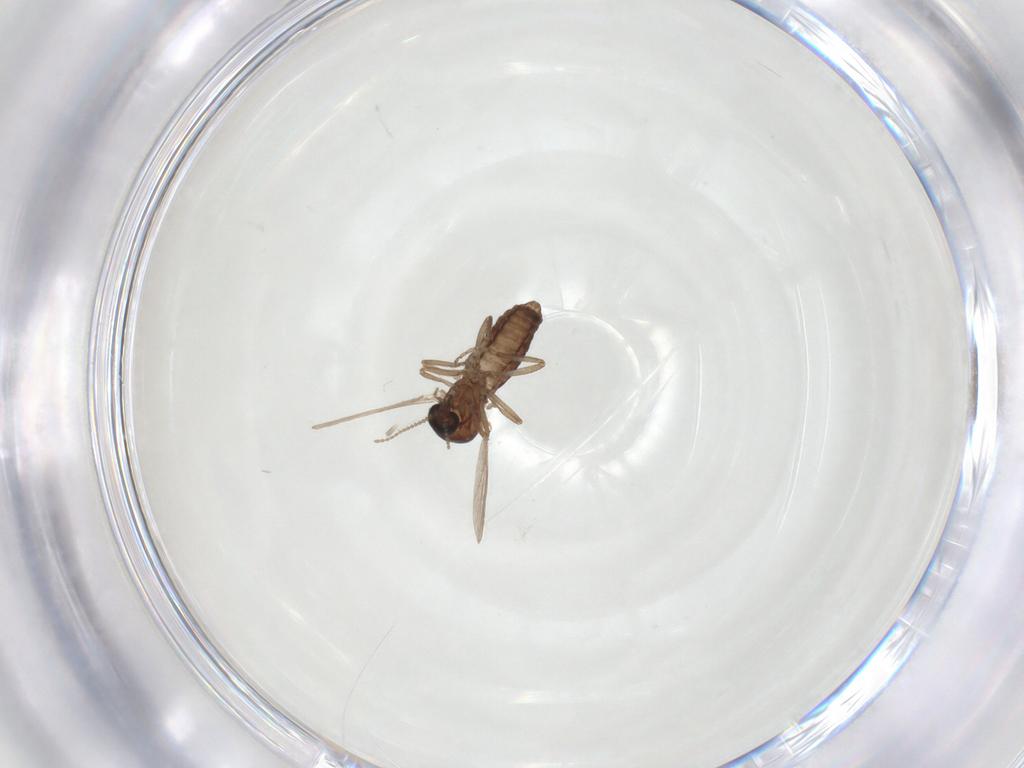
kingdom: Animalia
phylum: Arthropoda
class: Insecta
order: Diptera
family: Ceratopogonidae
